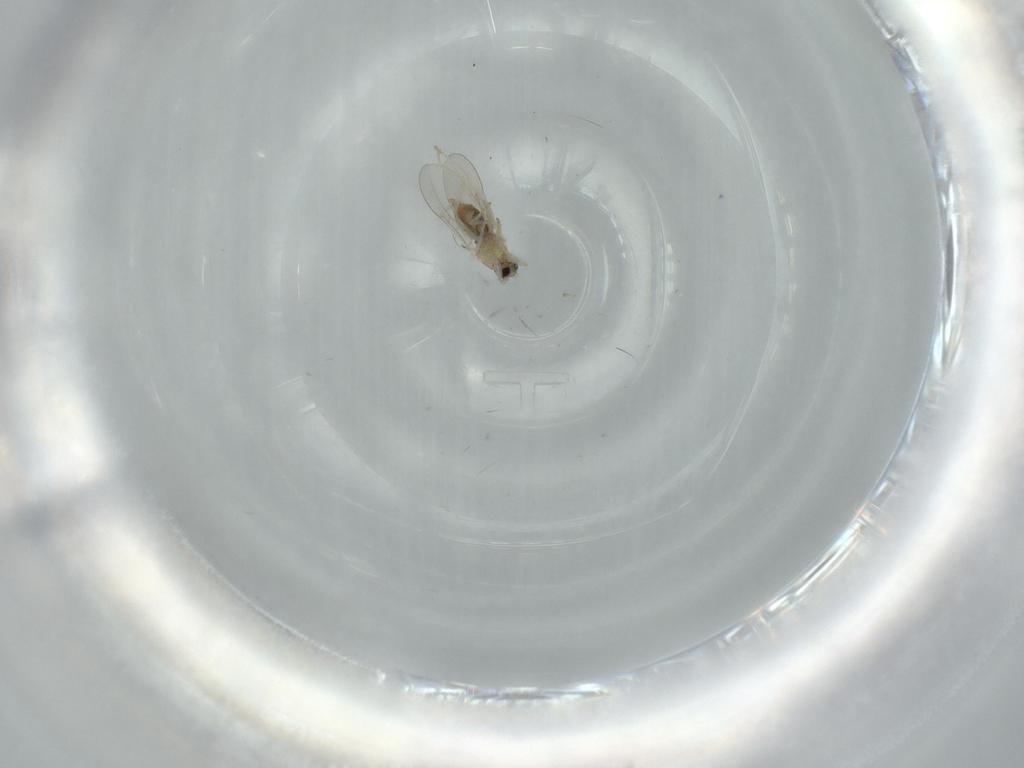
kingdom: Animalia
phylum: Arthropoda
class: Insecta
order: Diptera
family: Cecidomyiidae
